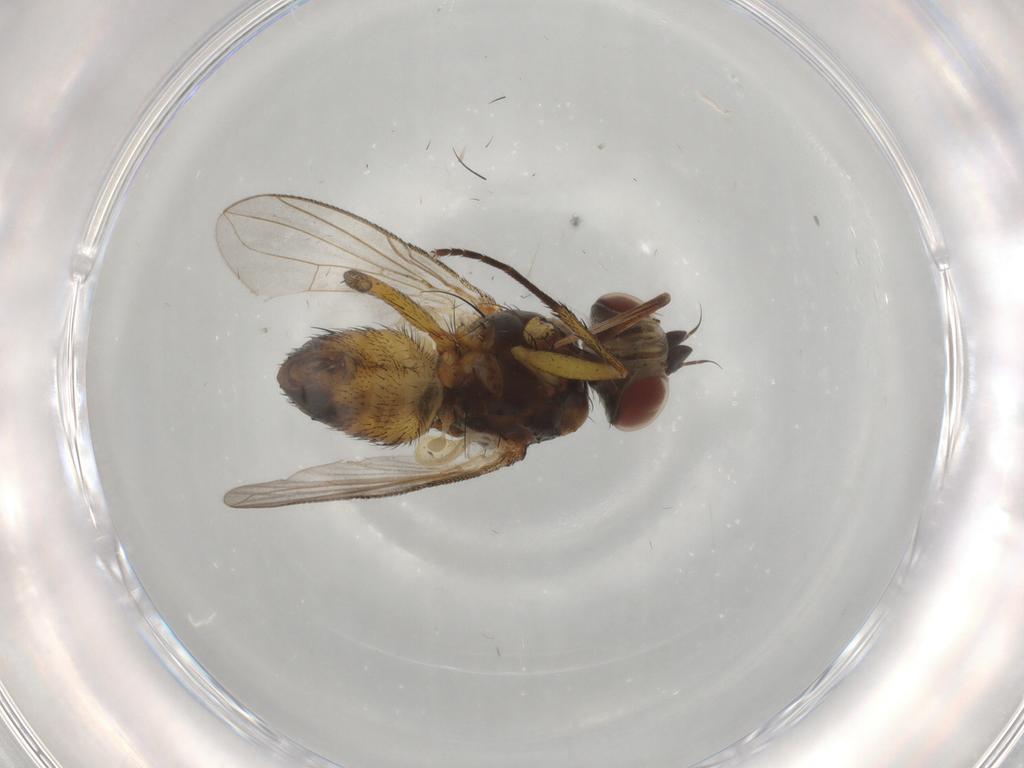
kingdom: Animalia
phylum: Arthropoda
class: Insecta
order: Diptera
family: Tachinidae
